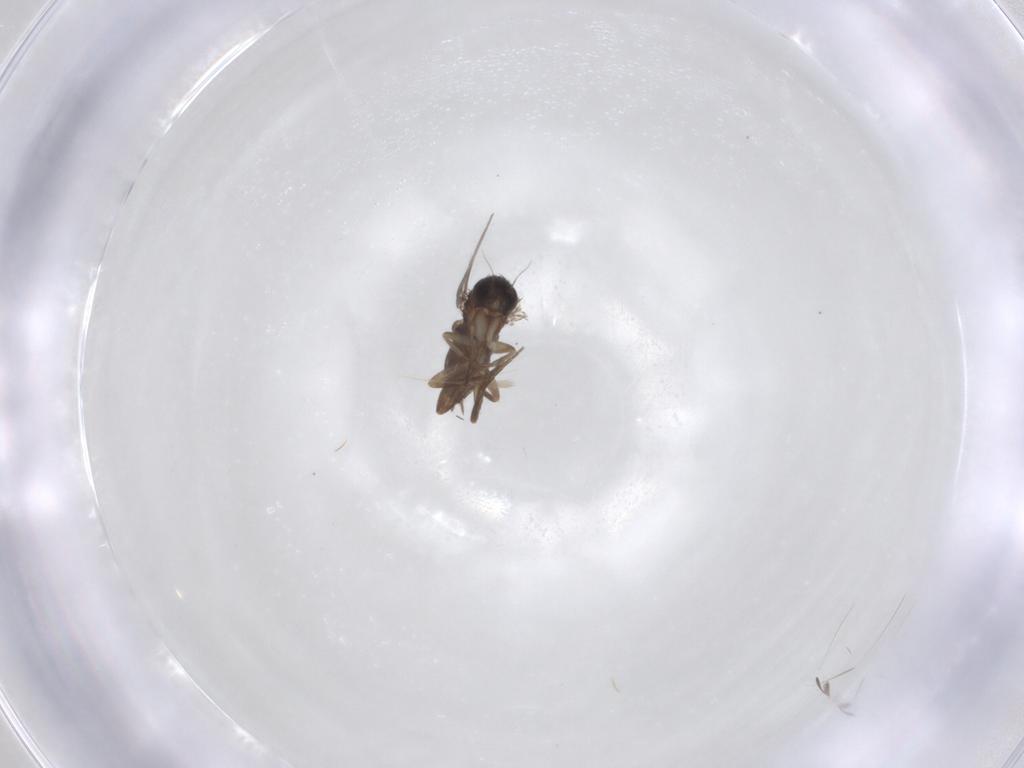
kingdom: Animalia
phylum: Arthropoda
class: Insecta
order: Diptera
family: Phoridae
